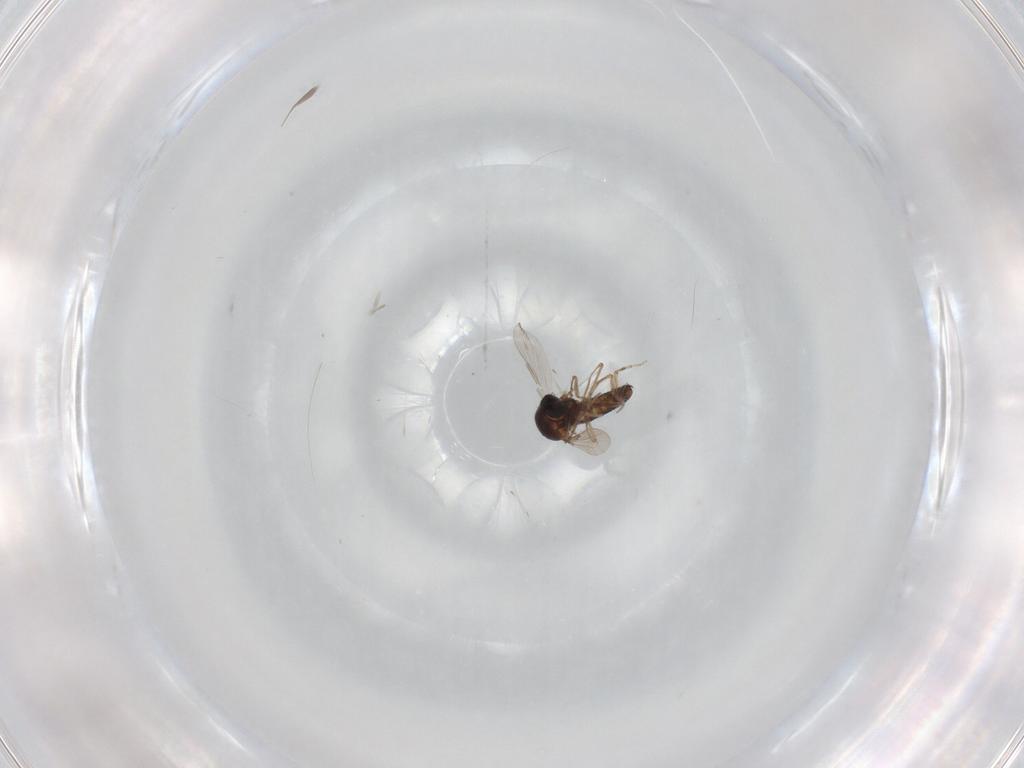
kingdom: Animalia
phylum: Arthropoda
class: Insecta
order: Diptera
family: Ceratopogonidae
